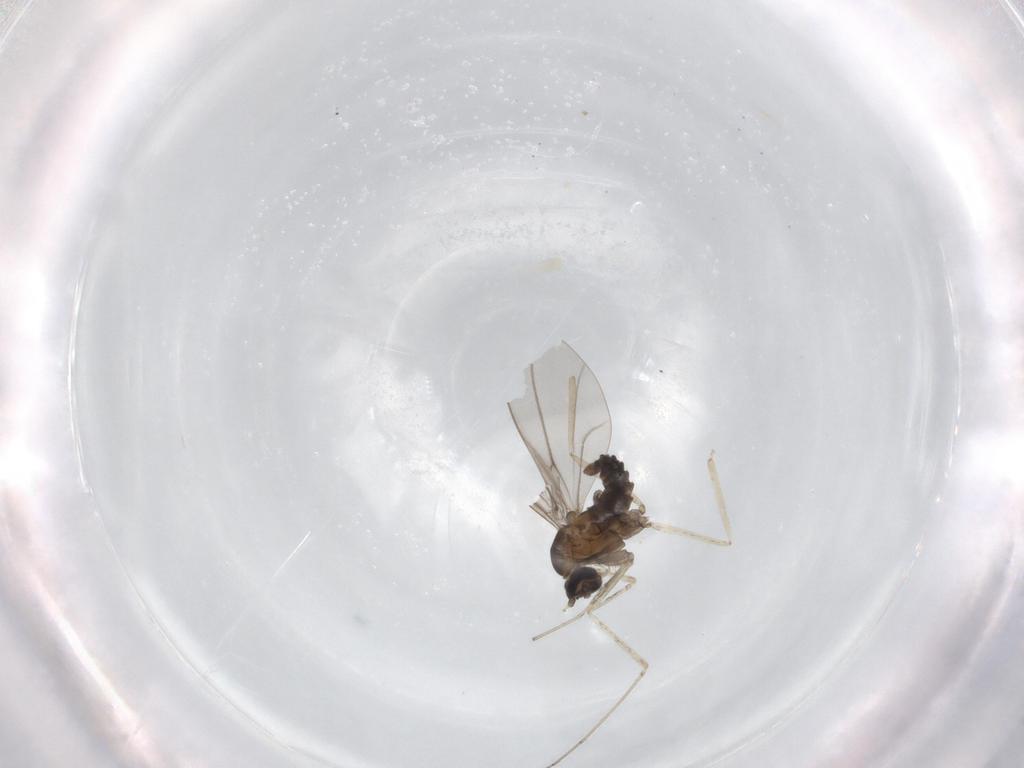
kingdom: Animalia
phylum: Arthropoda
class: Insecta
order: Diptera
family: Cecidomyiidae
